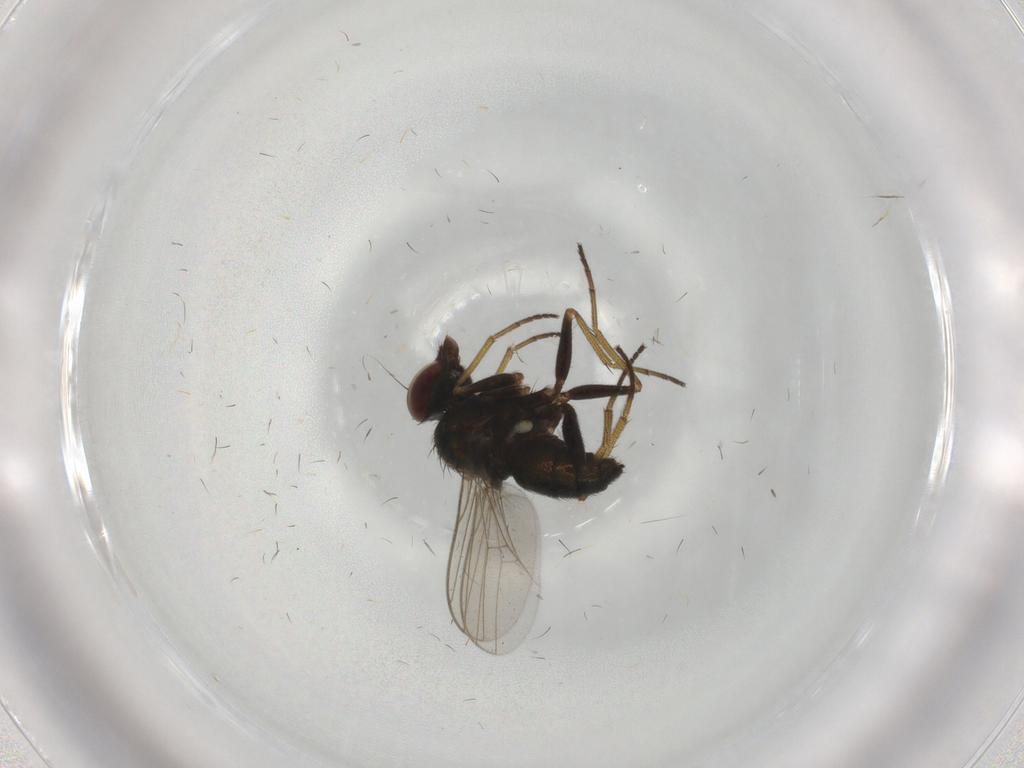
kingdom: Animalia
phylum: Arthropoda
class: Insecta
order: Diptera
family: Dolichopodidae
